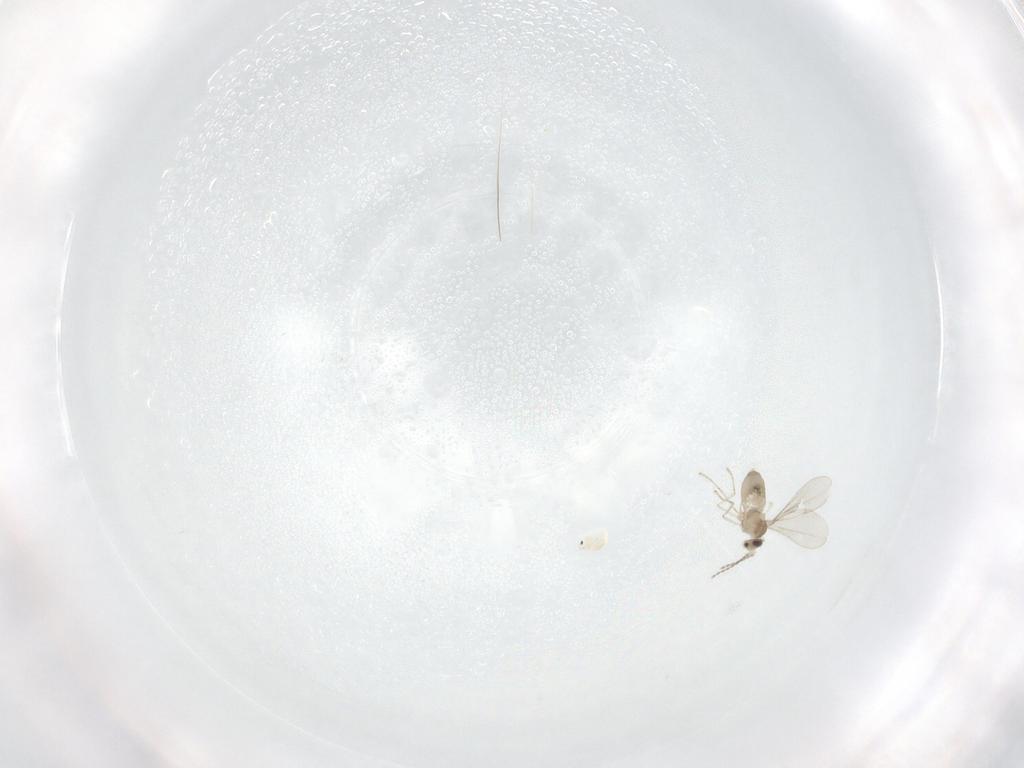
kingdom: Animalia
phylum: Arthropoda
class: Insecta
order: Diptera
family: Cecidomyiidae
